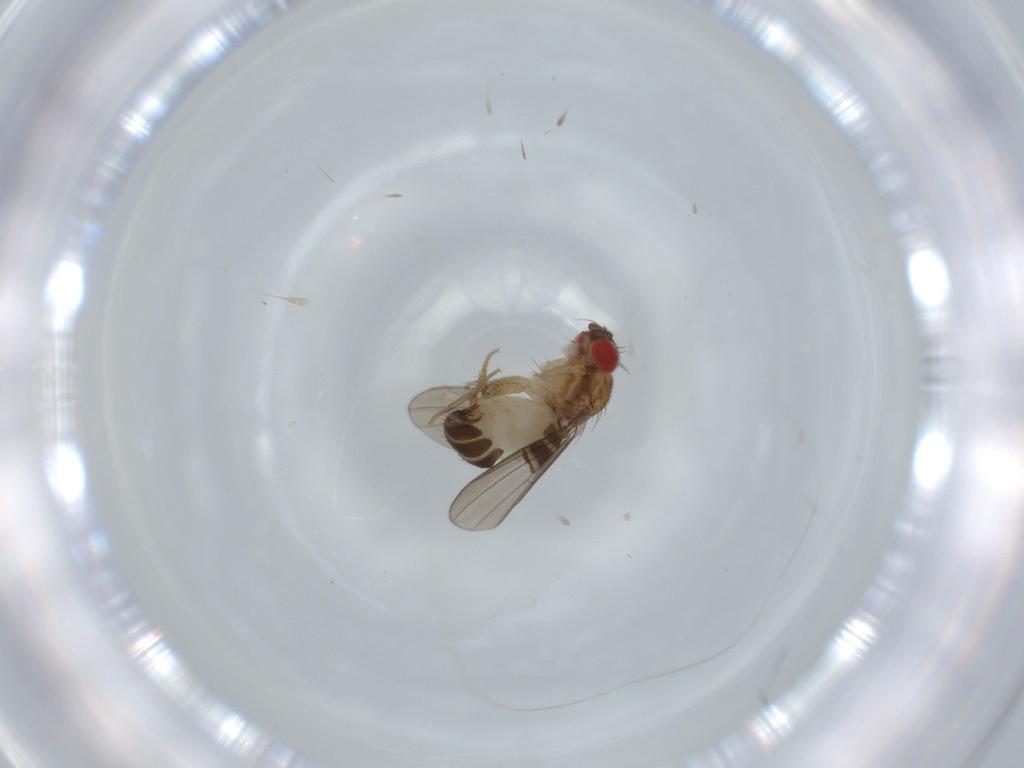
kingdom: Animalia
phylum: Arthropoda
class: Insecta
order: Diptera
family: Drosophilidae
